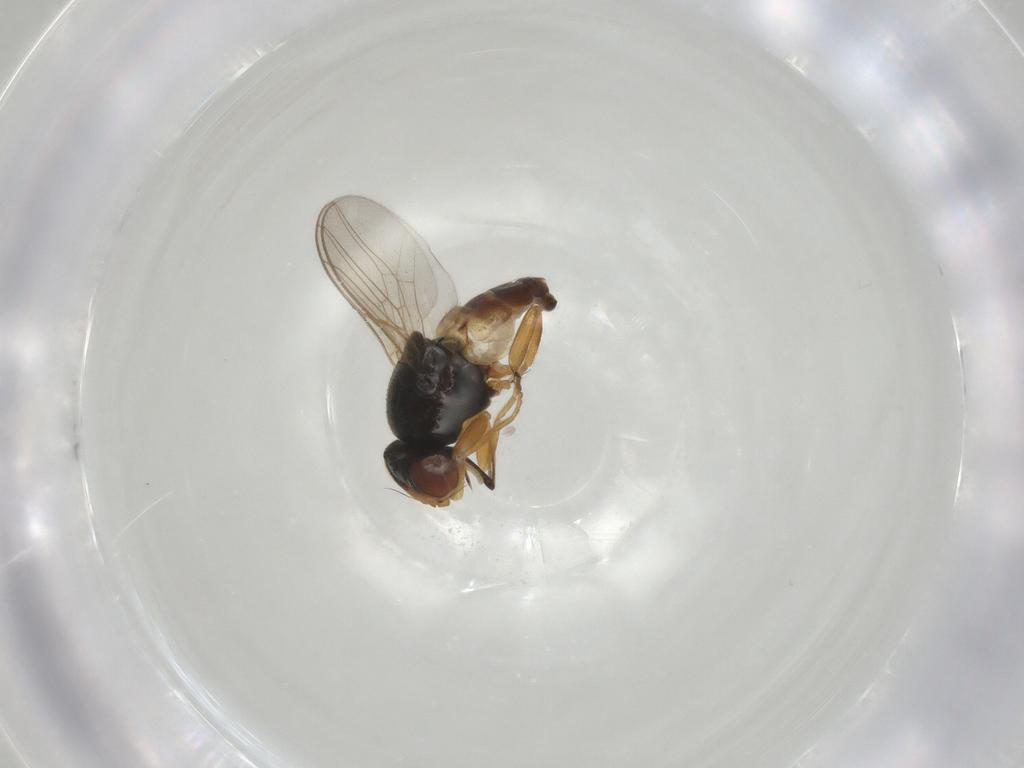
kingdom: Animalia
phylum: Arthropoda
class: Insecta
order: Diptera
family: Chloropidae
